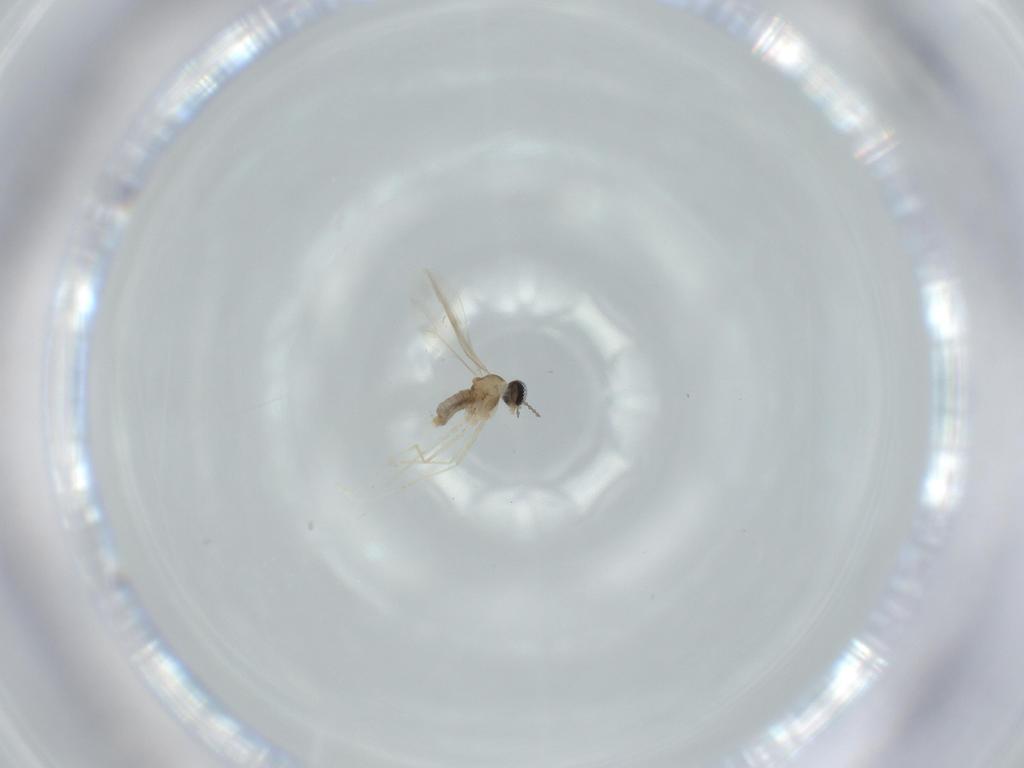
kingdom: Animalia
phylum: Arthropoda
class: Insecta
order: Diptera
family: Cecidomyiidae
